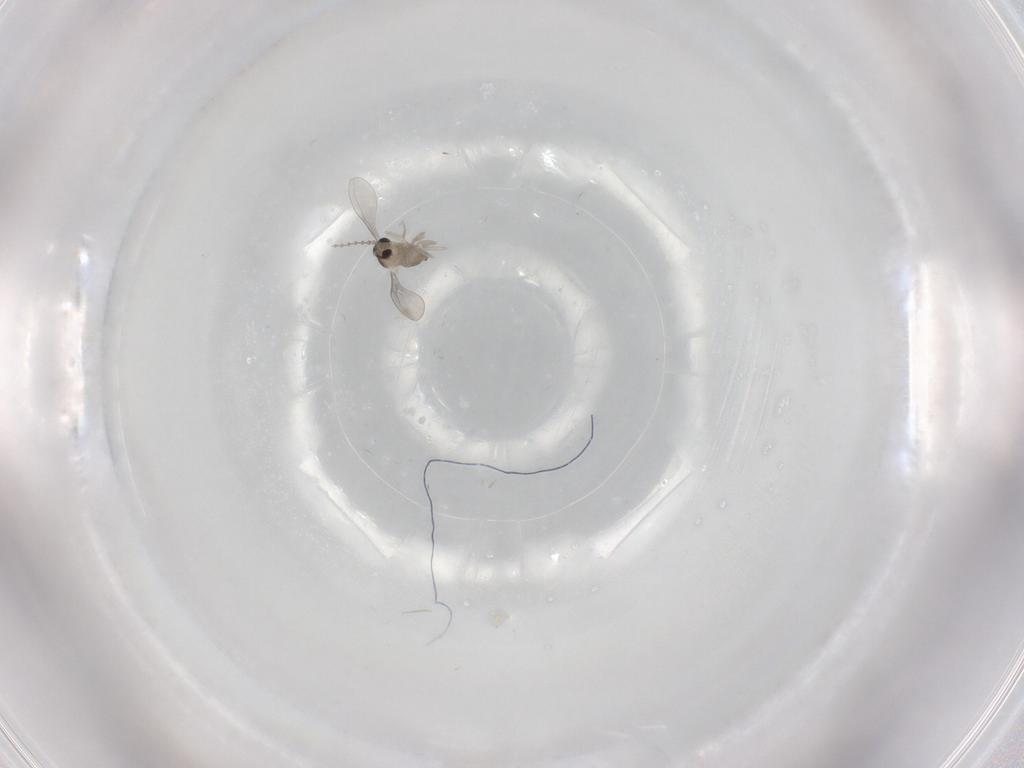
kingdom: Animalia
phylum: Arthropoda
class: Insecta
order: Diptera
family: Cecidomyiidae
